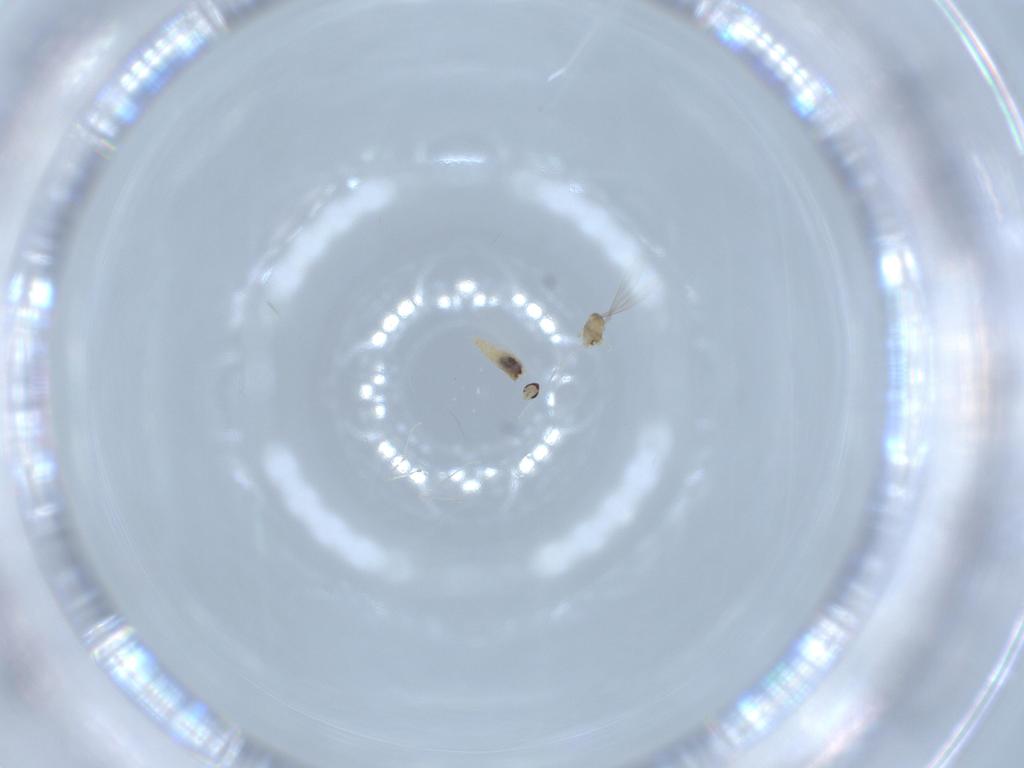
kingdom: Animalia
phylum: Arthropoda
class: Insecta
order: Diptera
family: Cecidomyiidae
